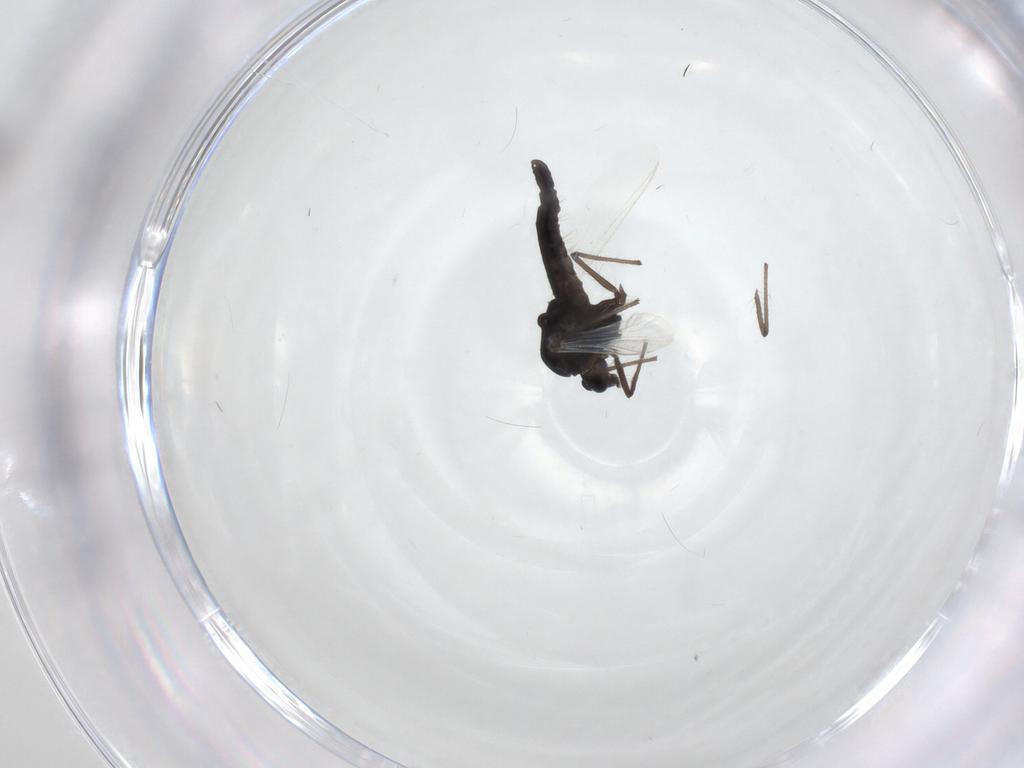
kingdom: Animalia
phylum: Arthropoda
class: Insecta
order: Diptera
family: Chironomidae
